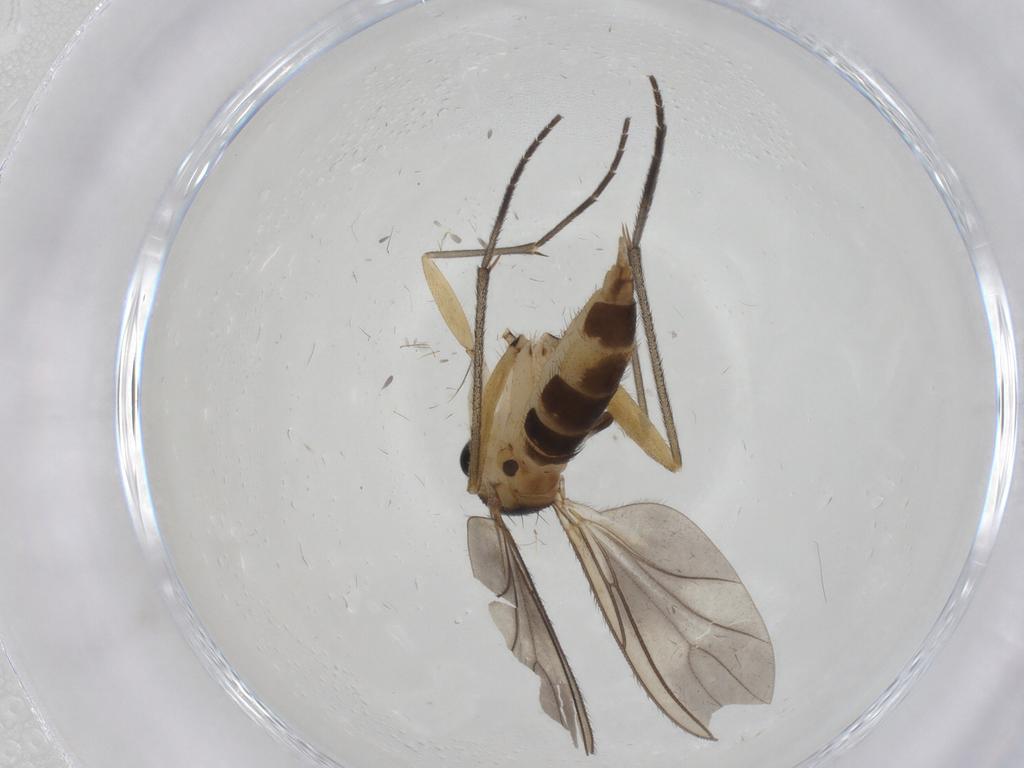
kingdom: Animalia
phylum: Arthropoda
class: Insecta
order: Diptera
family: Sciaridae
